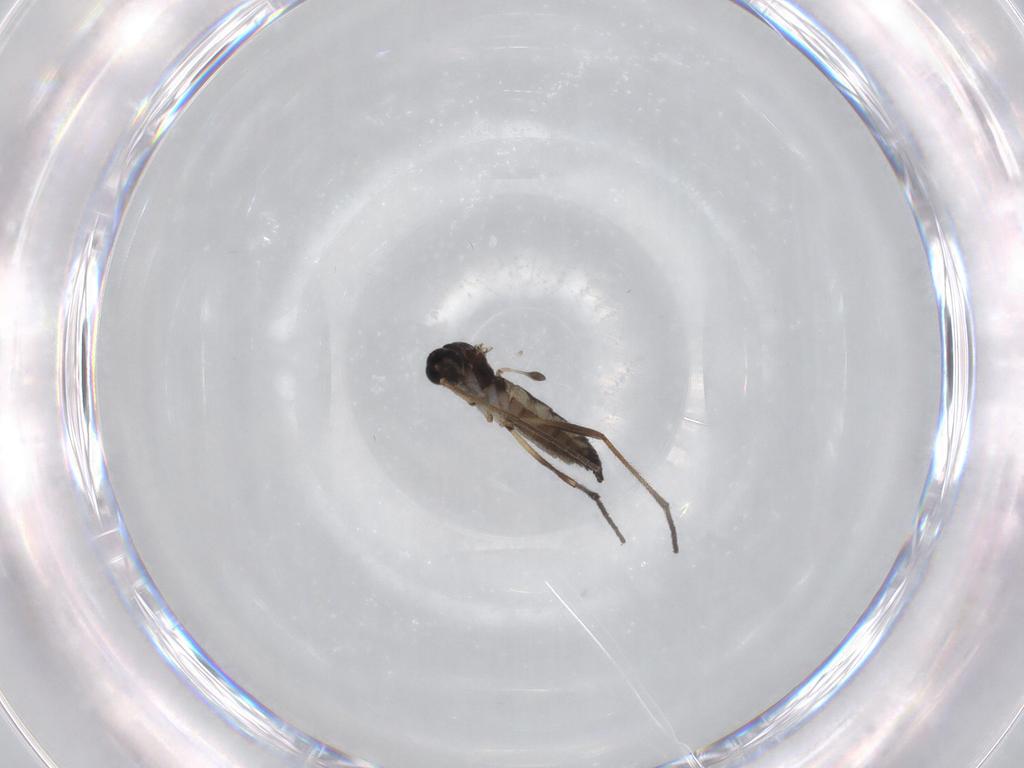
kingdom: Animalia
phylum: Arthropoda
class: Insecta
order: Diptera
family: Sciaridae
